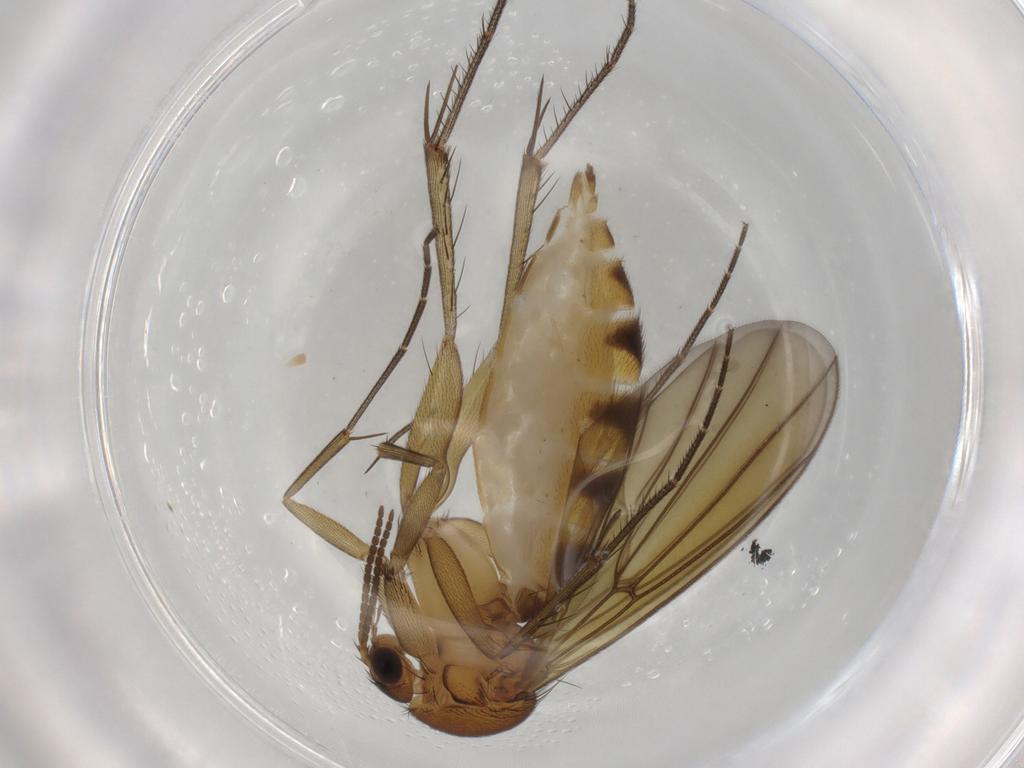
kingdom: Animalia
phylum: Arthropoda
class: Insecta
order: Diptera
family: Mycetophilidae
